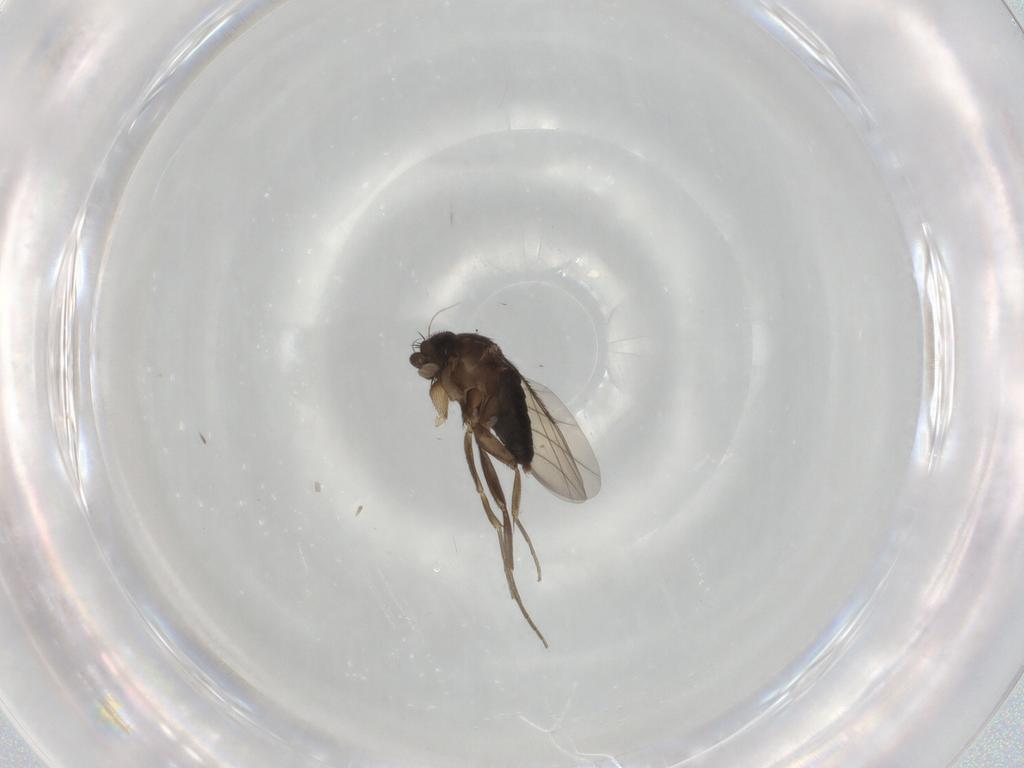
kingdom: Animalia
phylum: Arthropoda
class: Insecta
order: Diptera
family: Phoridae
